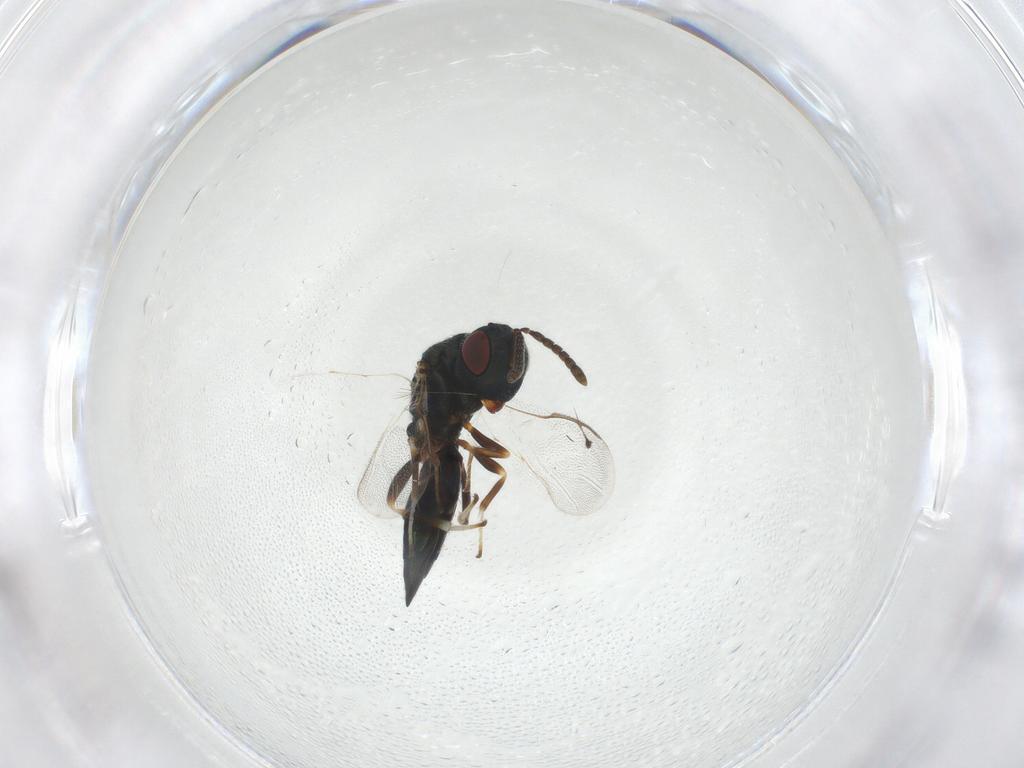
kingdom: Animalia
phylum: Arthropoda
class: Insecta
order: Hymenoptera
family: Pteromalidae
